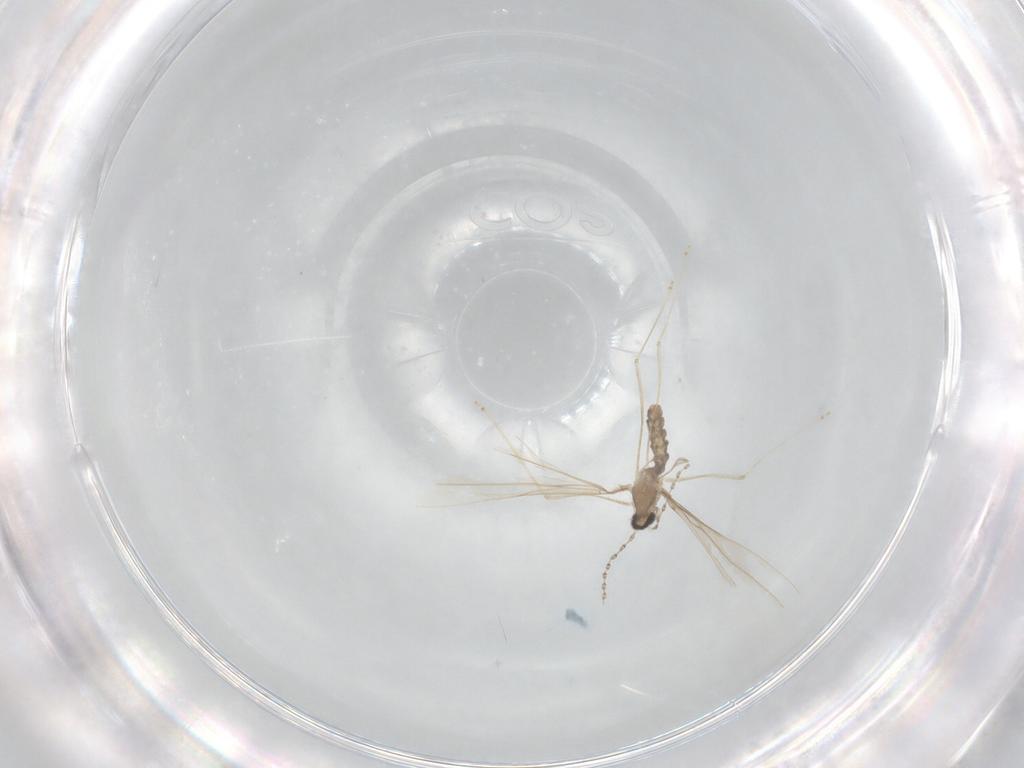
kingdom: Animalia
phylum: Arthropoda
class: Insecta
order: Diptera
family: Cecidomyiidae
